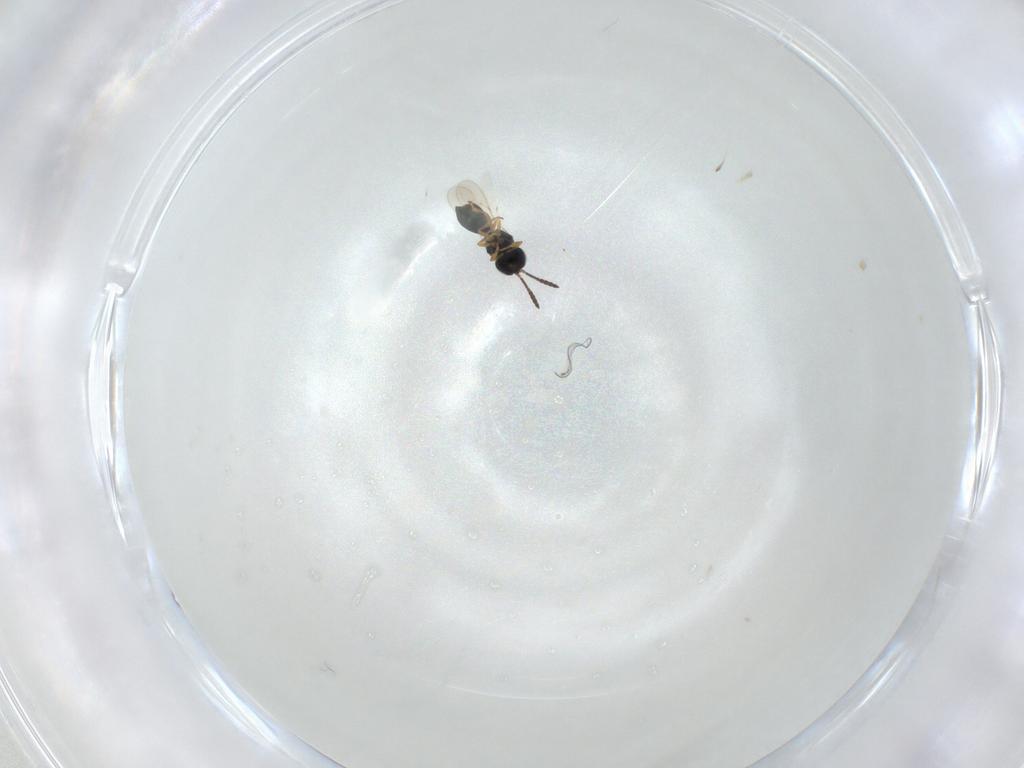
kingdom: Animalia
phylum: Arthropoda
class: Insecta
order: Hymenoptera
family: Scelionidae
